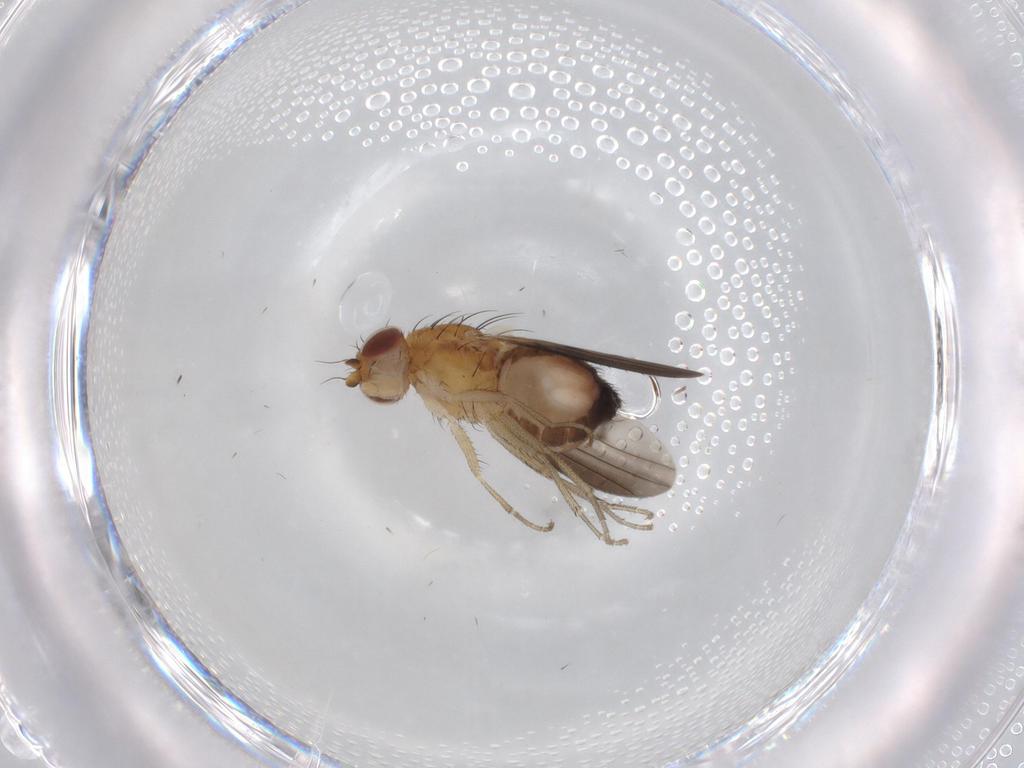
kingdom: Animalia
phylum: Arthropoda
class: Insecta
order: Diptera
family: Heleomyzidae
